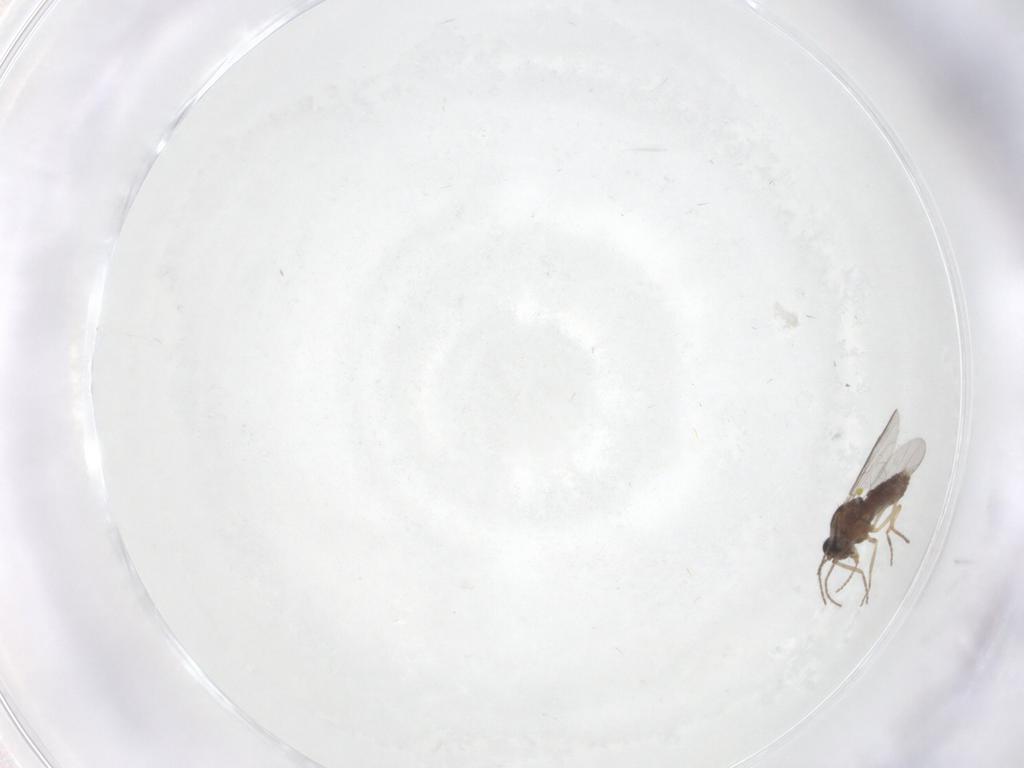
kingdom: Animalia
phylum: Arthropoda
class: Insecta
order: Diptera
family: Ceratopogonidae
